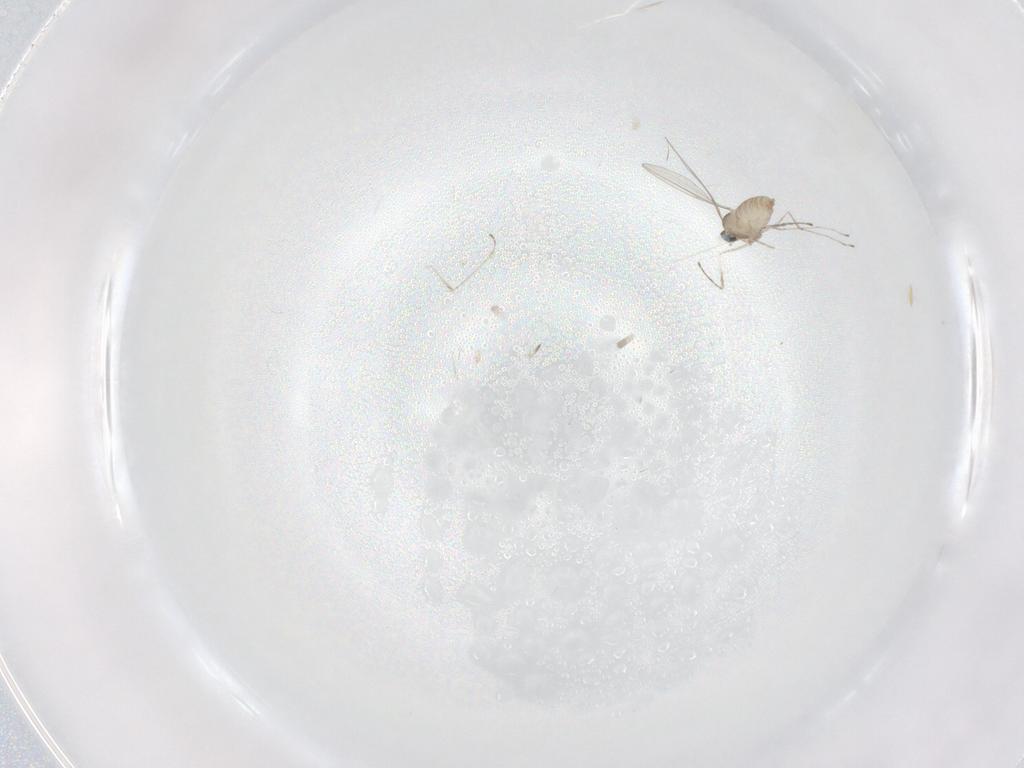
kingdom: Animalia
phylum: Arthropoda
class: Insecta
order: Diptera
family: Cecidomyiidae
